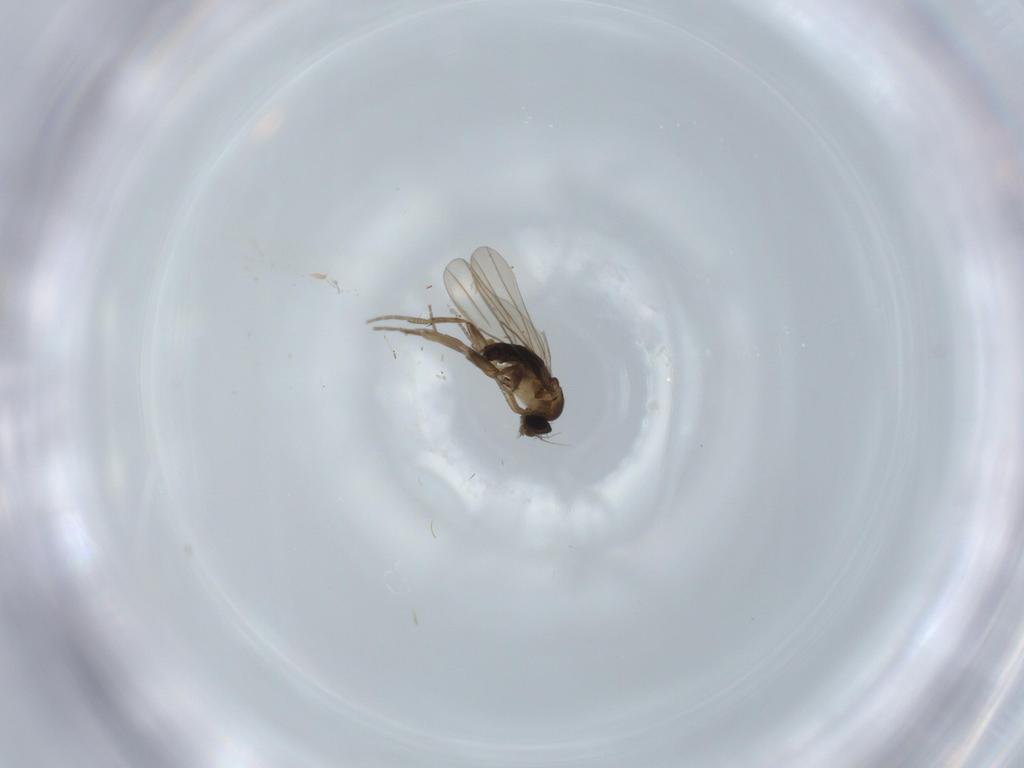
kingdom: Animalia
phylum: Arthropoda
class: Insecta
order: Diptera
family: Phoridae
